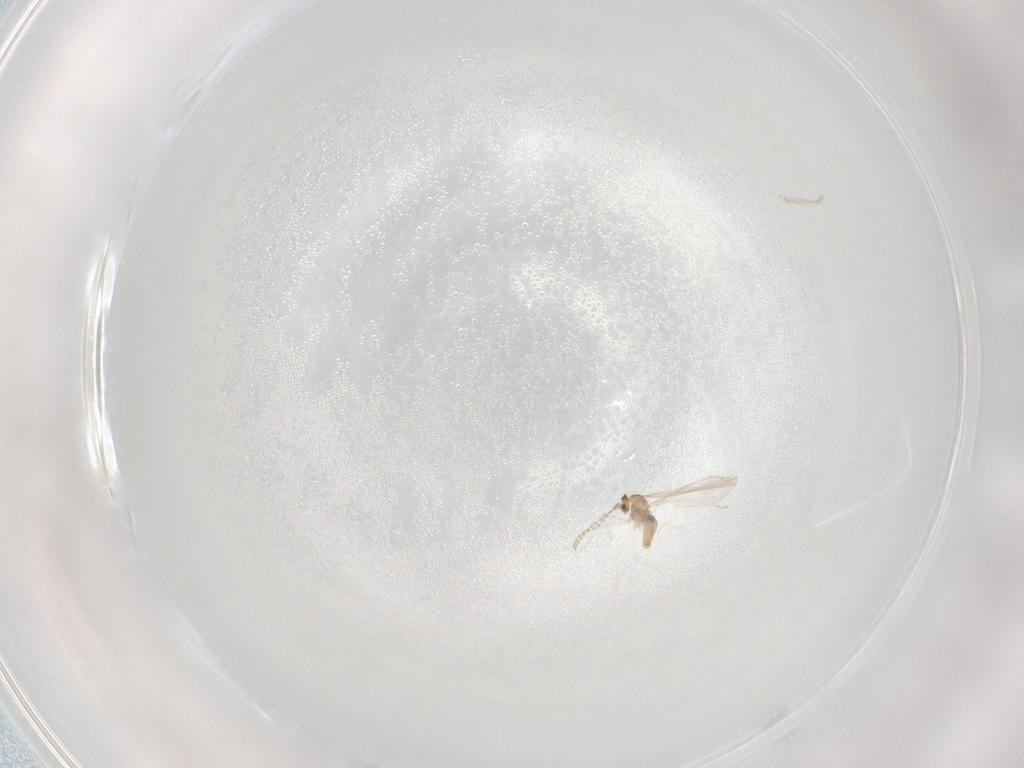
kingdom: Animalia
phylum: Arthropoda
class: Insecta
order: Diptera
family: Cecidomyiidae
